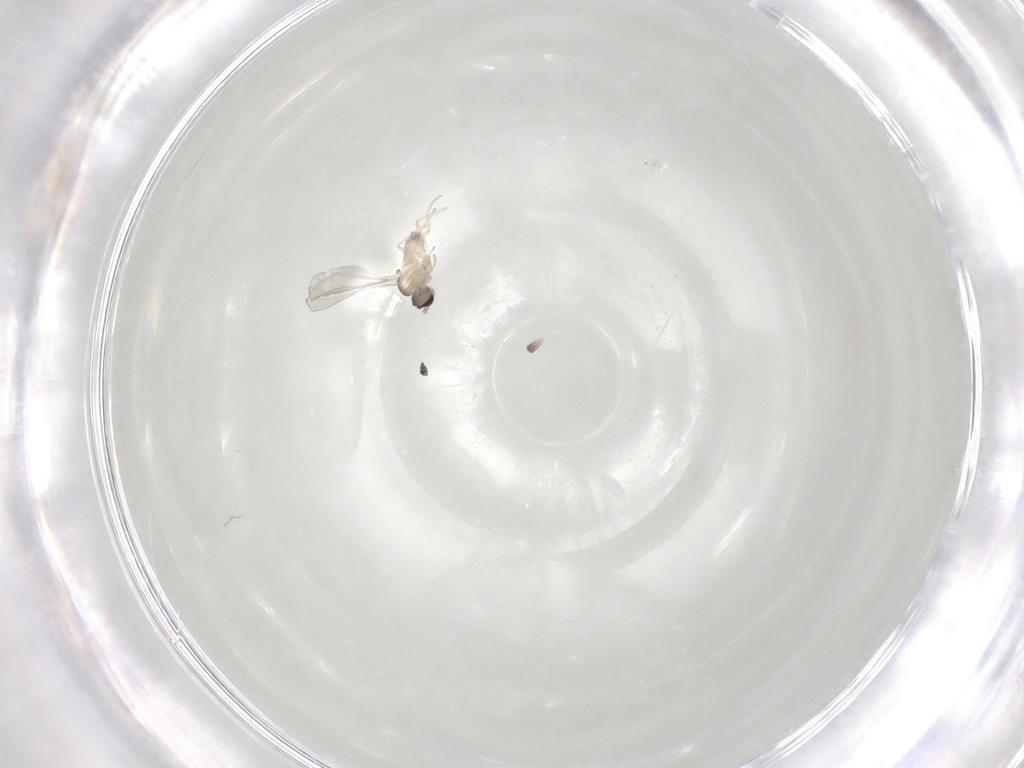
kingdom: Animalia
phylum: Arthropoda
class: Insecta
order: Diptera
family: Cecidomyiidae
